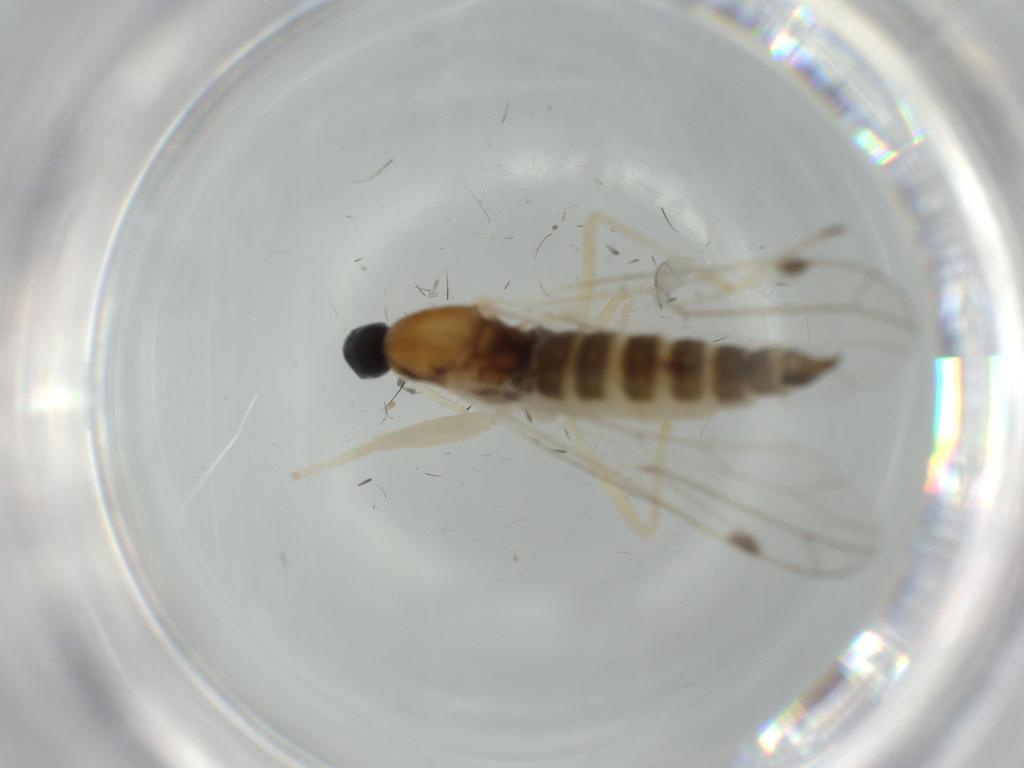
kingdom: Animalia
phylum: Arthropoda
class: Insecta
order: Diptera
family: Empididae
